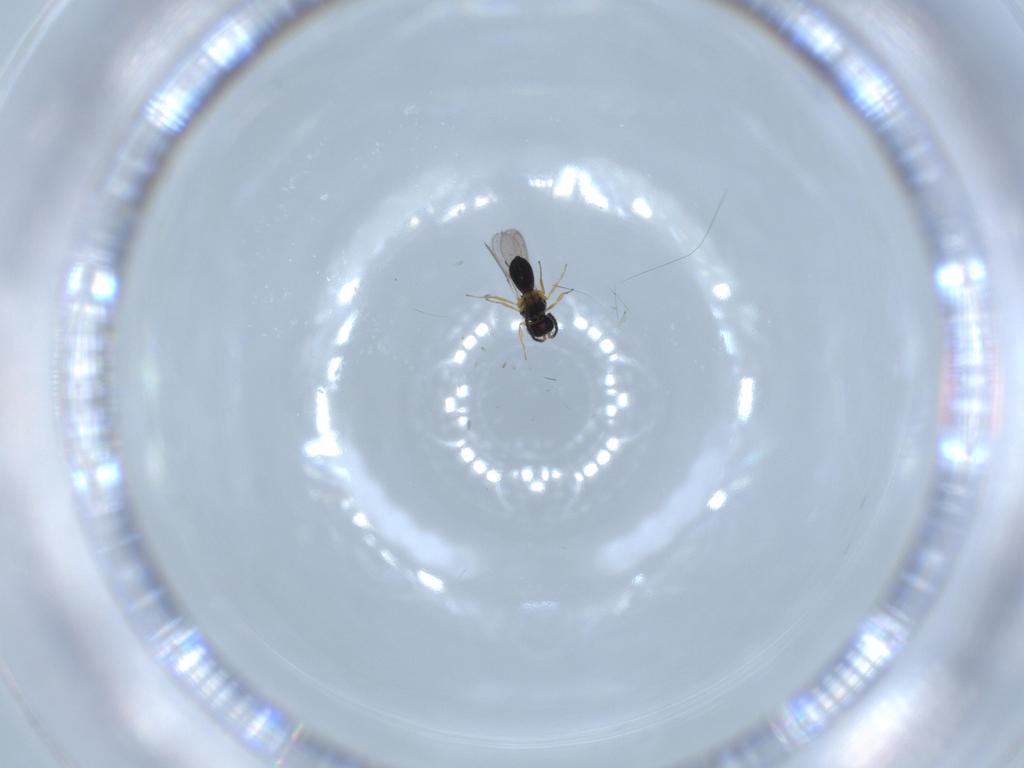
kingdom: Animalia
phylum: Arthropoda
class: Insecta
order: Hymenoptera
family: Scelionidae
